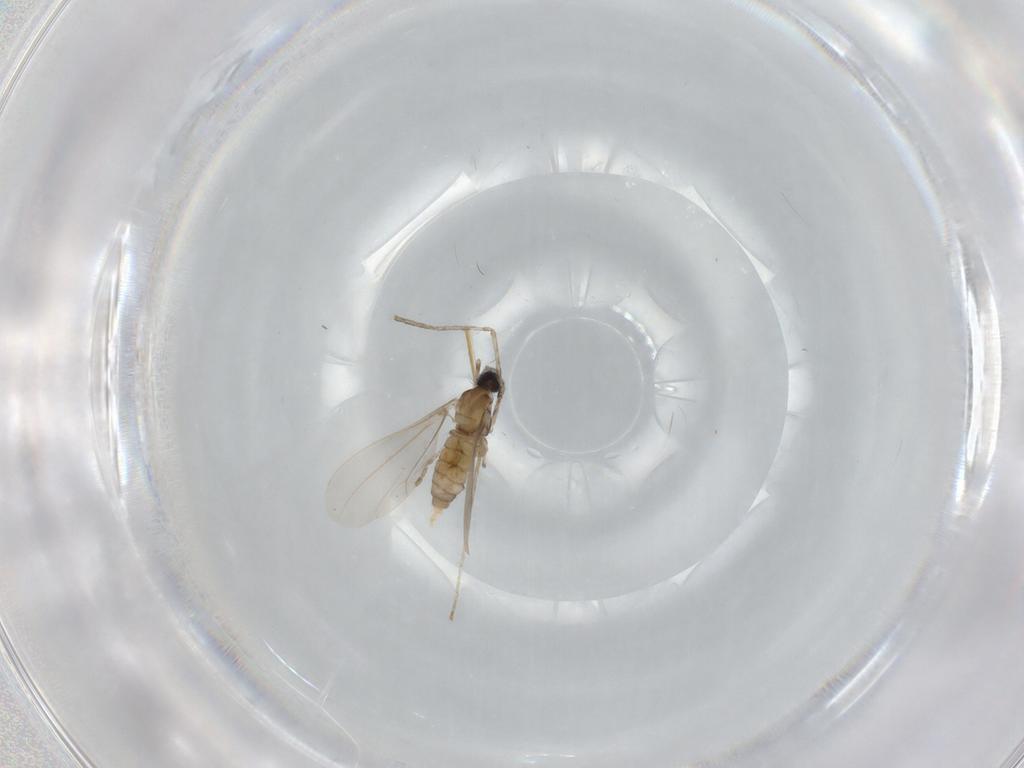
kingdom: Animalia
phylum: Arthropoda
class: Insecta
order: Diptera
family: Cecidomyiidae
